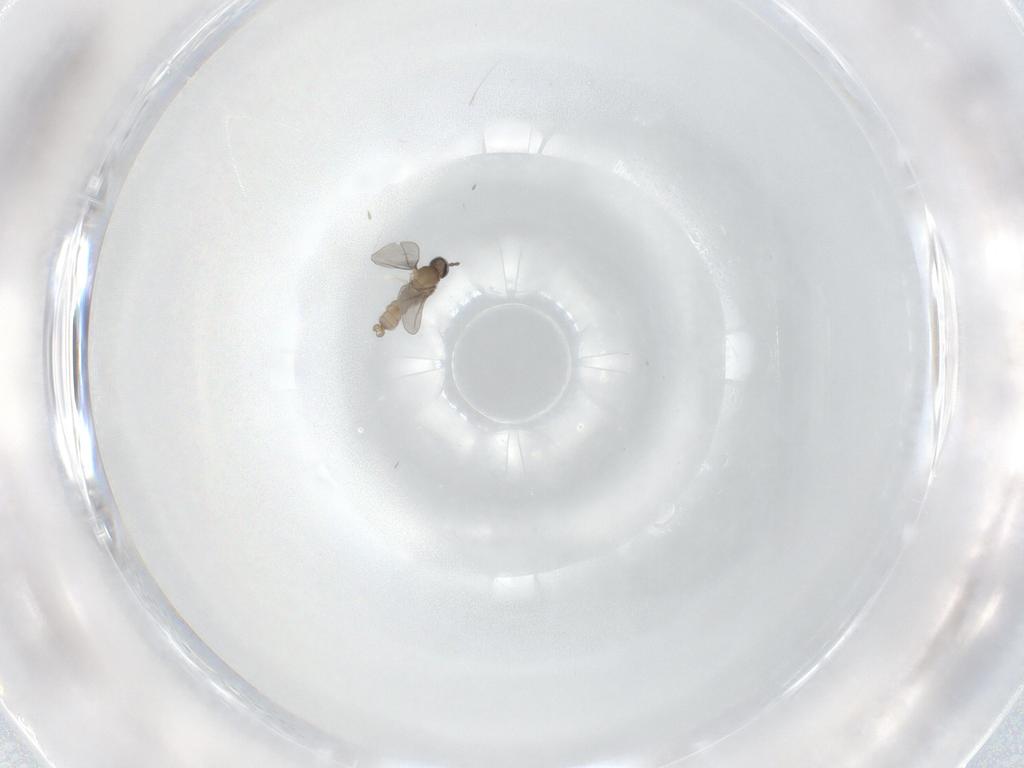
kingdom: Animalia
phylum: Arthropoda
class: Insecta
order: Diptera
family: Cecidomyiidae
